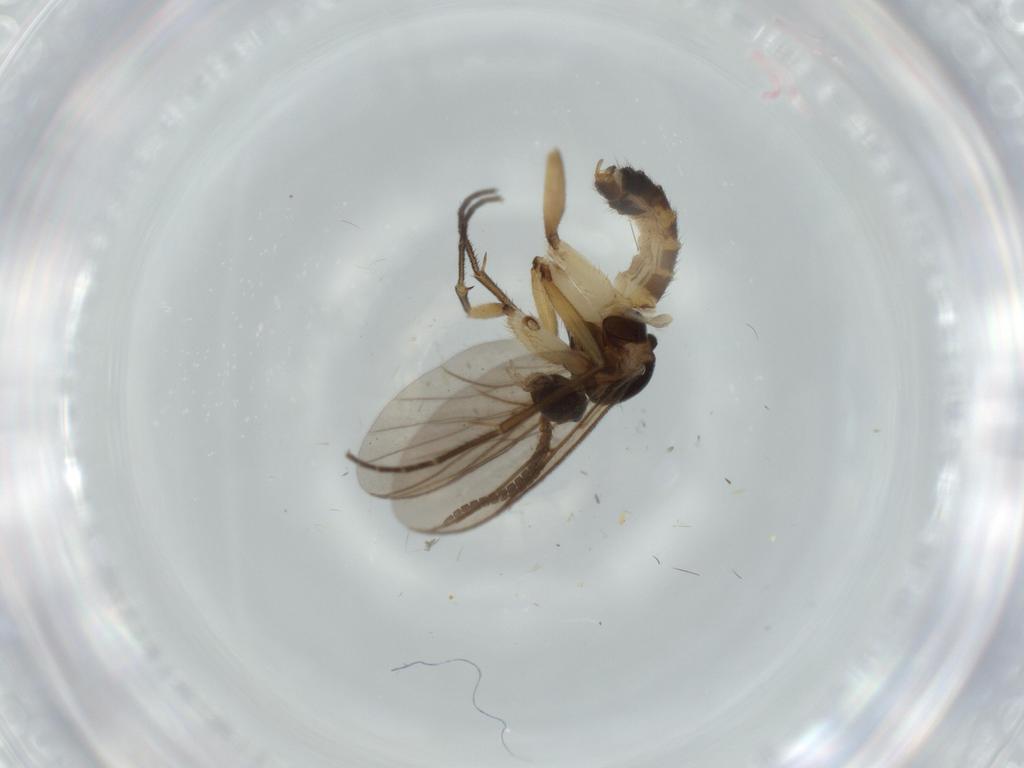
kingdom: Animalia
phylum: Arthropoda
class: Insecta
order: Diptera
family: Mycetophilidae
